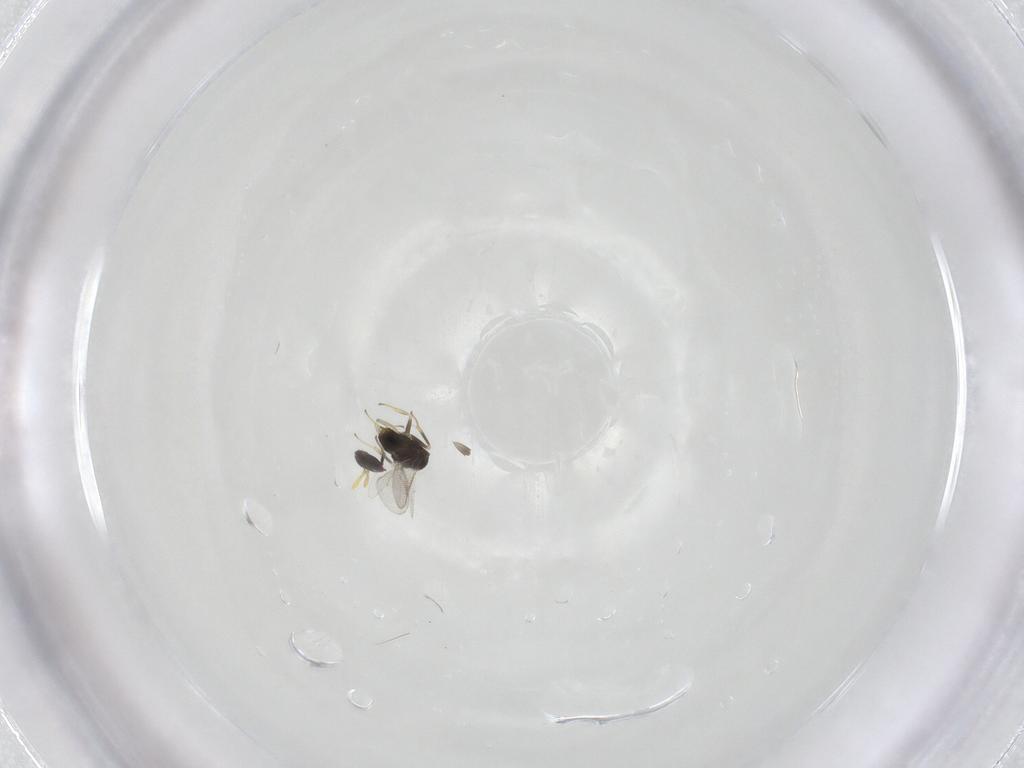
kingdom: Animalia
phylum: Arthropoda
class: Insecta
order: Hymenoptera
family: Aphelinidae
